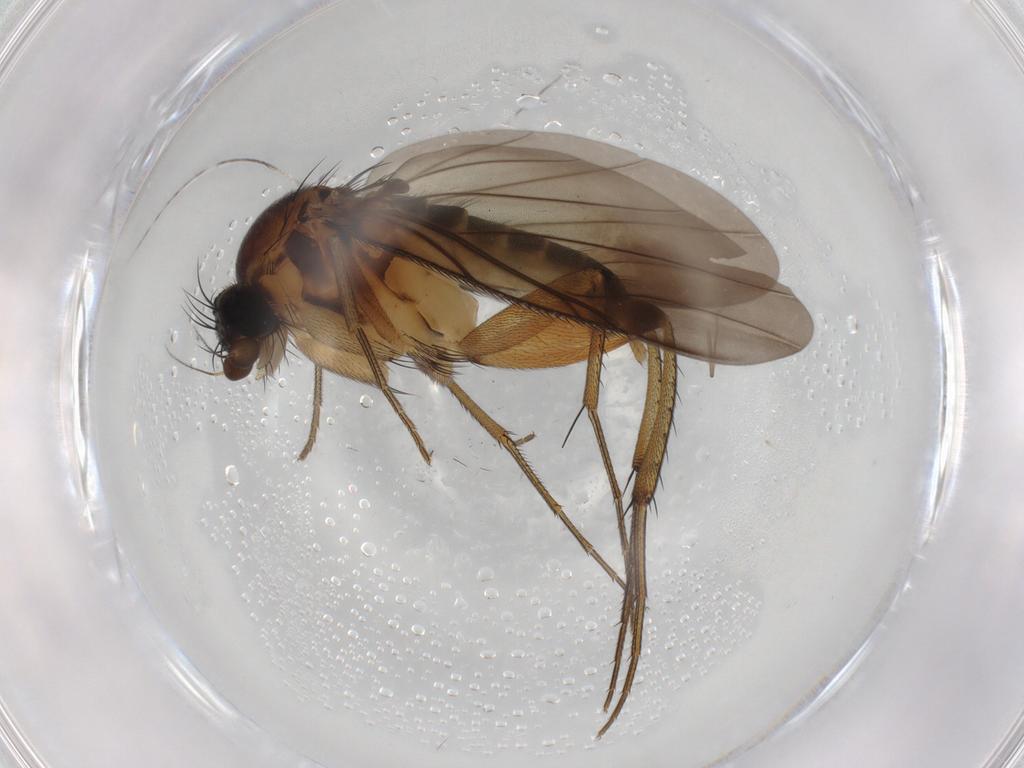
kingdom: Animalia
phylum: Arthropoda
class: Insecta
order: Diptera
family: Phoridae
